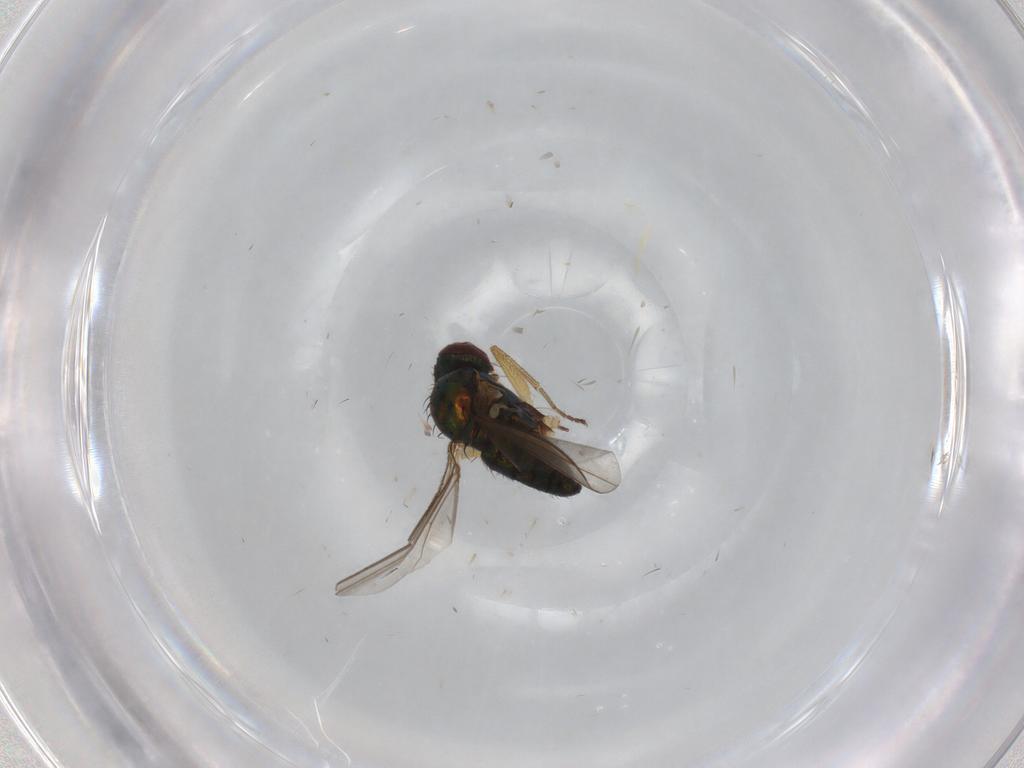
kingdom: Animalia
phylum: Arthropoda
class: Insecta
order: Diptera
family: Dolichopodidae
